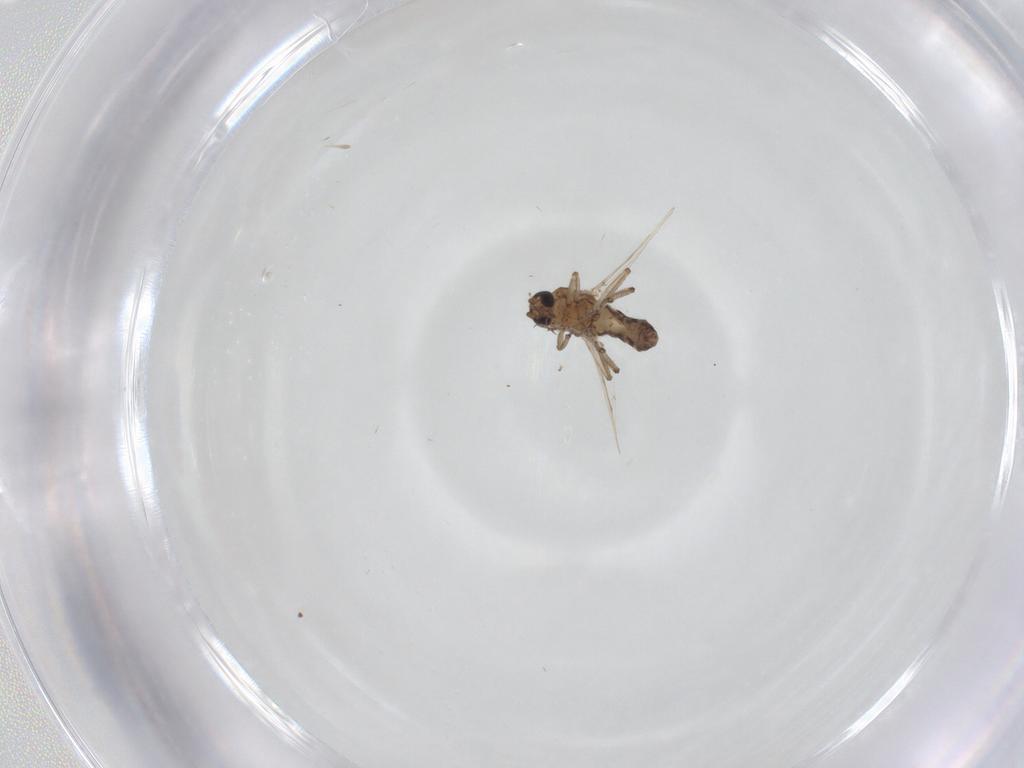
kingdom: Animalia
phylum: Arthropoda
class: Insecta
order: Diptera
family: Ceratopogonidae
